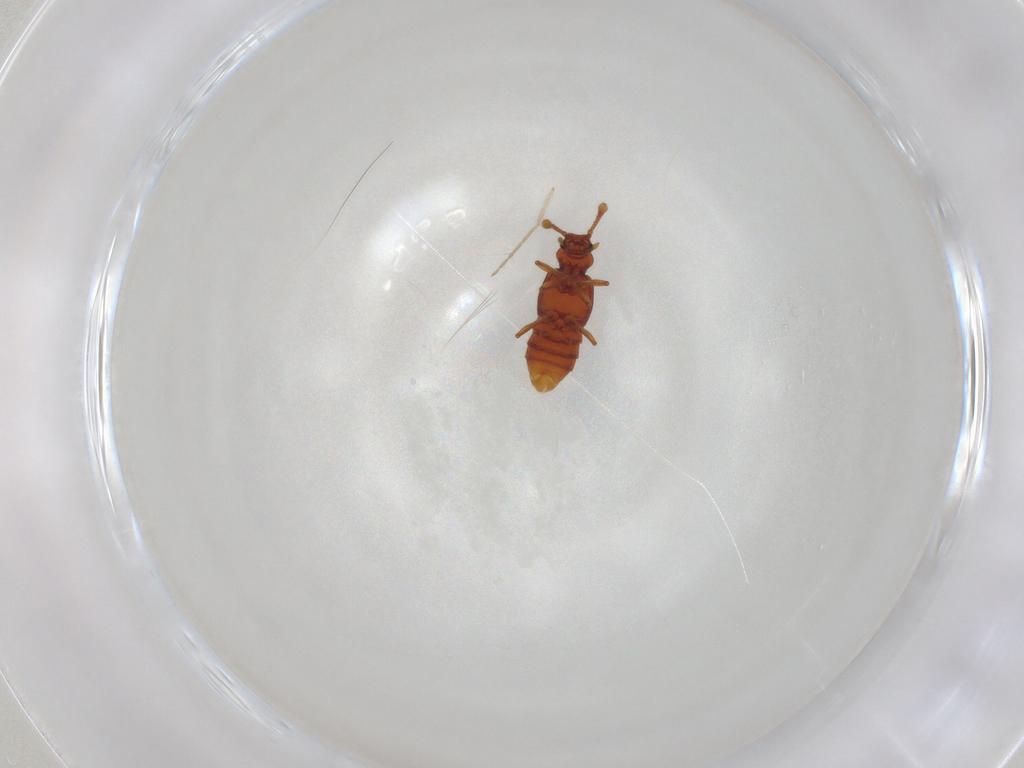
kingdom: Animalia
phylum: Arthropoda
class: Insecta
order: Coleoptera
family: Staphylinidae
